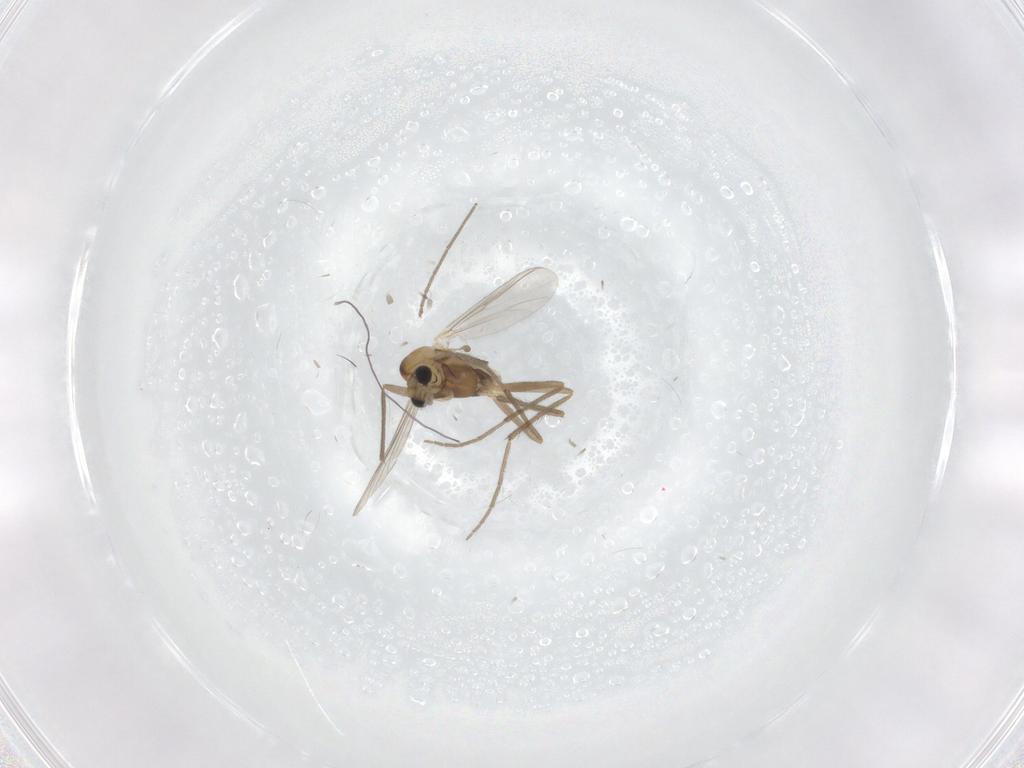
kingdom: Animalia
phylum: Arthropoda
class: Insecta
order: Diptera
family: Chironomidae
